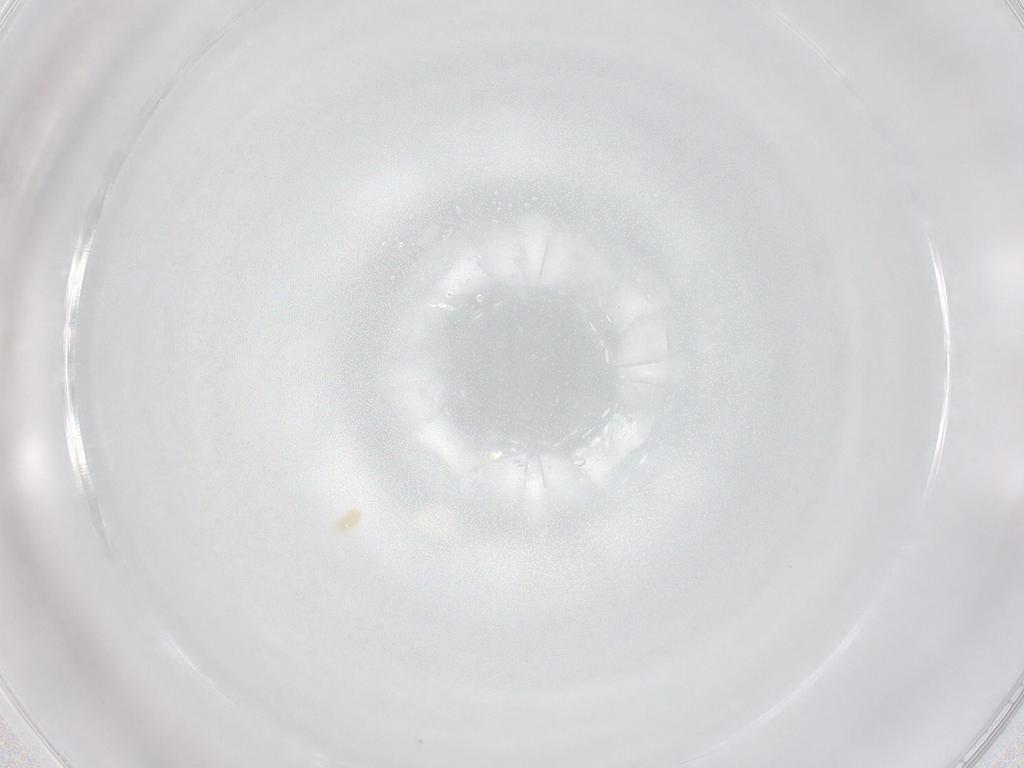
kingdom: Animalia
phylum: Arthropoda
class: Arachnida
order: Trombidiformes
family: Eupodidae
